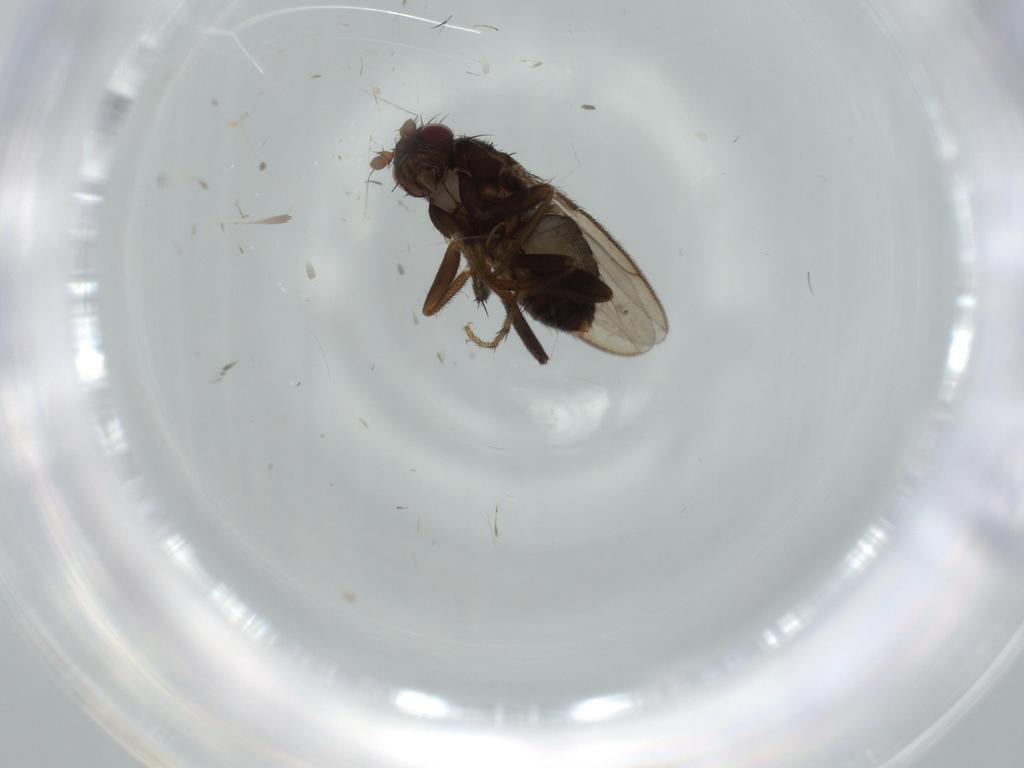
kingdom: Animalia
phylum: Arthropoda
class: Insecta
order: Diptera
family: Sphaeroceridae
